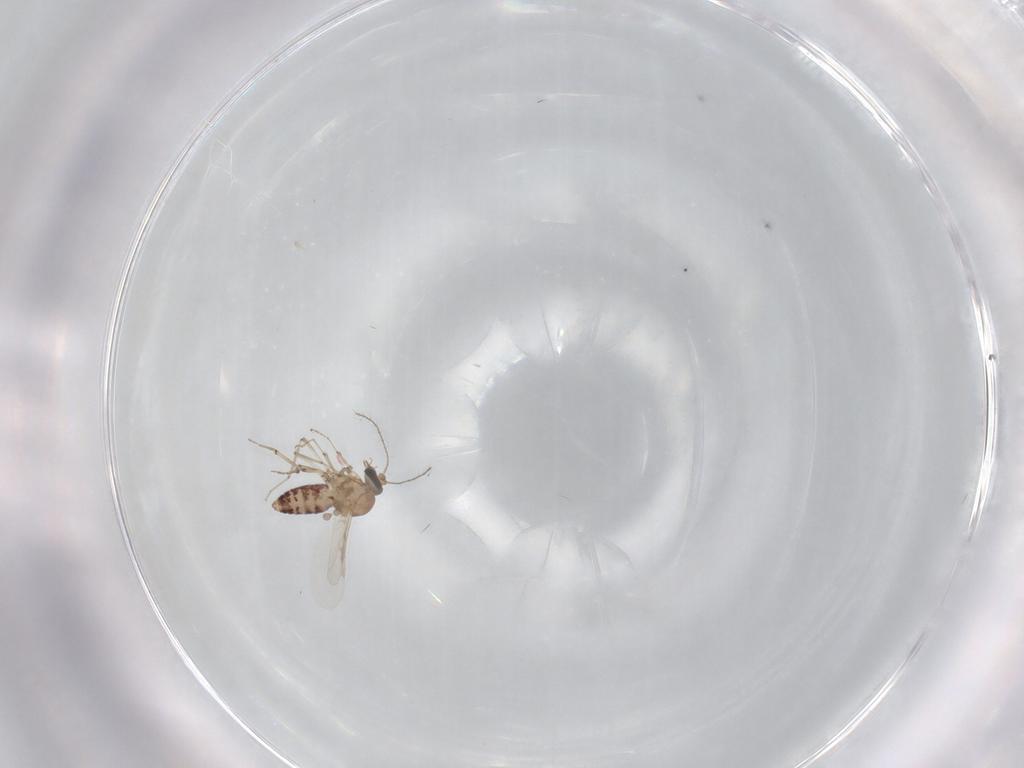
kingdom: Animalia
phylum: Arthropoda
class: Insecta
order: Diptera
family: Ceratopogonidae
